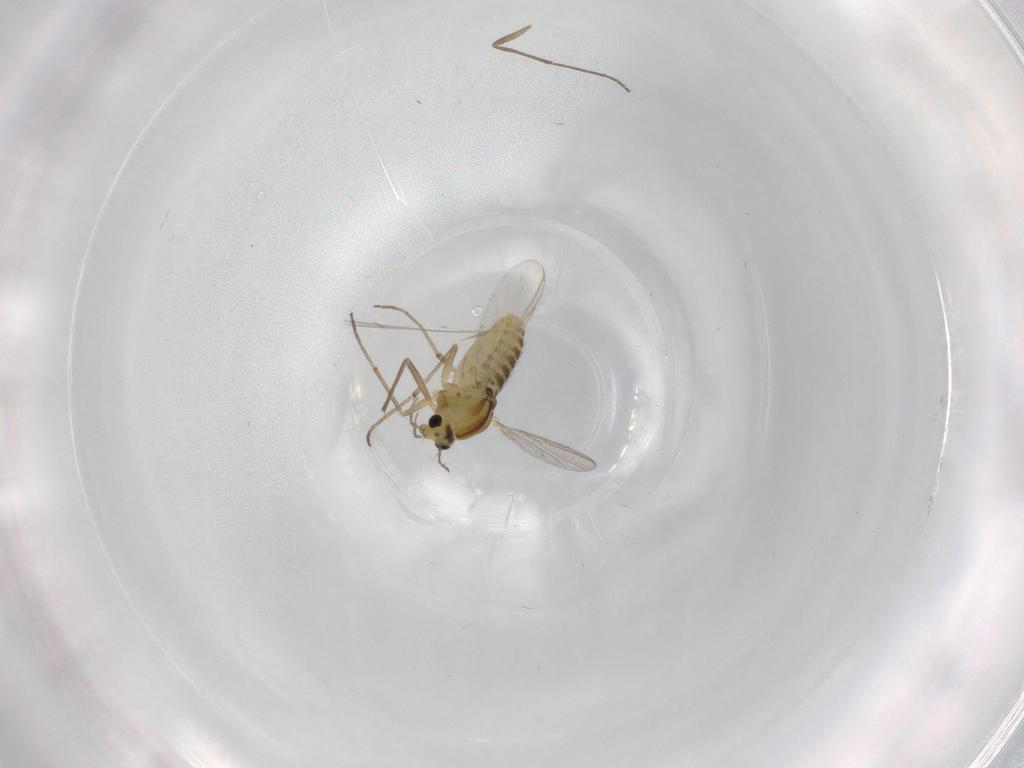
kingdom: Animalia
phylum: Arthropoda
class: Insecta
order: Diptera
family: Chironomidae
